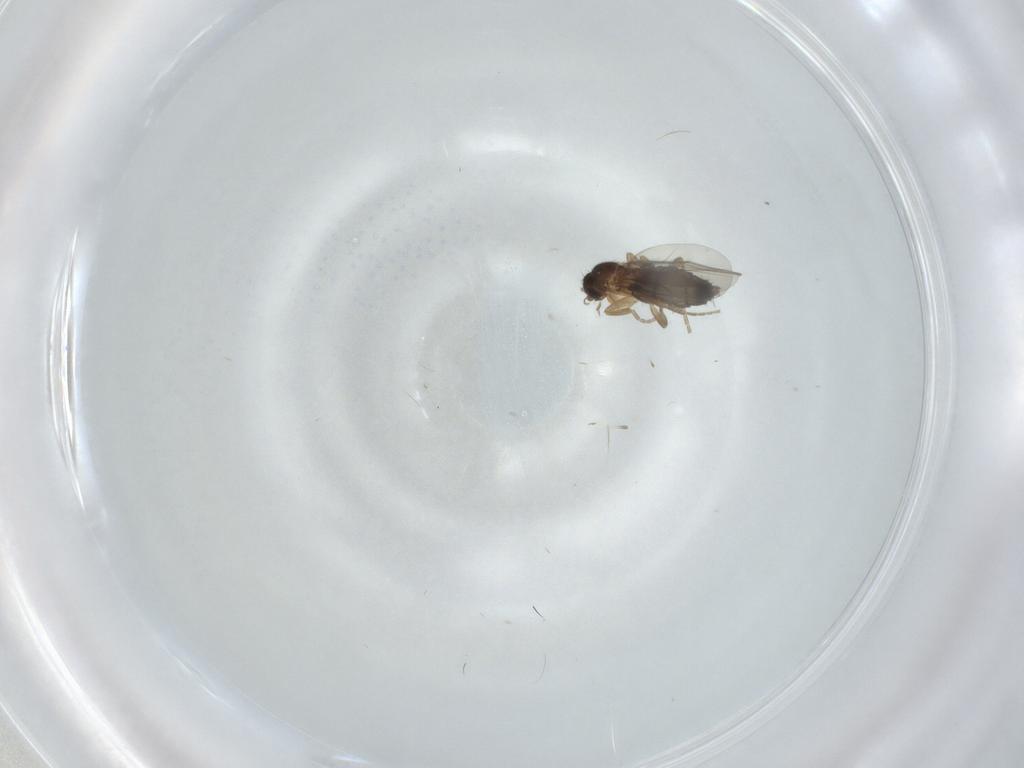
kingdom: Animalia
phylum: Arthropoda
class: Insecta
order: Diptera
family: Phoridae
